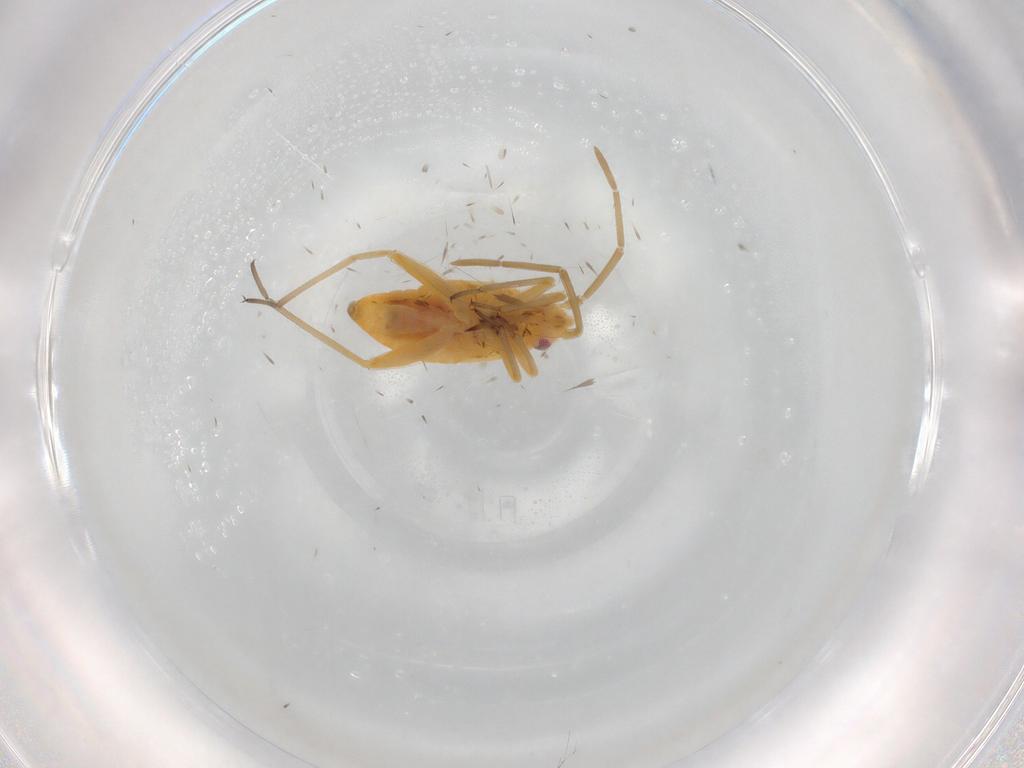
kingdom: Animalia
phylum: Arthropoda
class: Insecta
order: Hemiptera
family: Miridae
